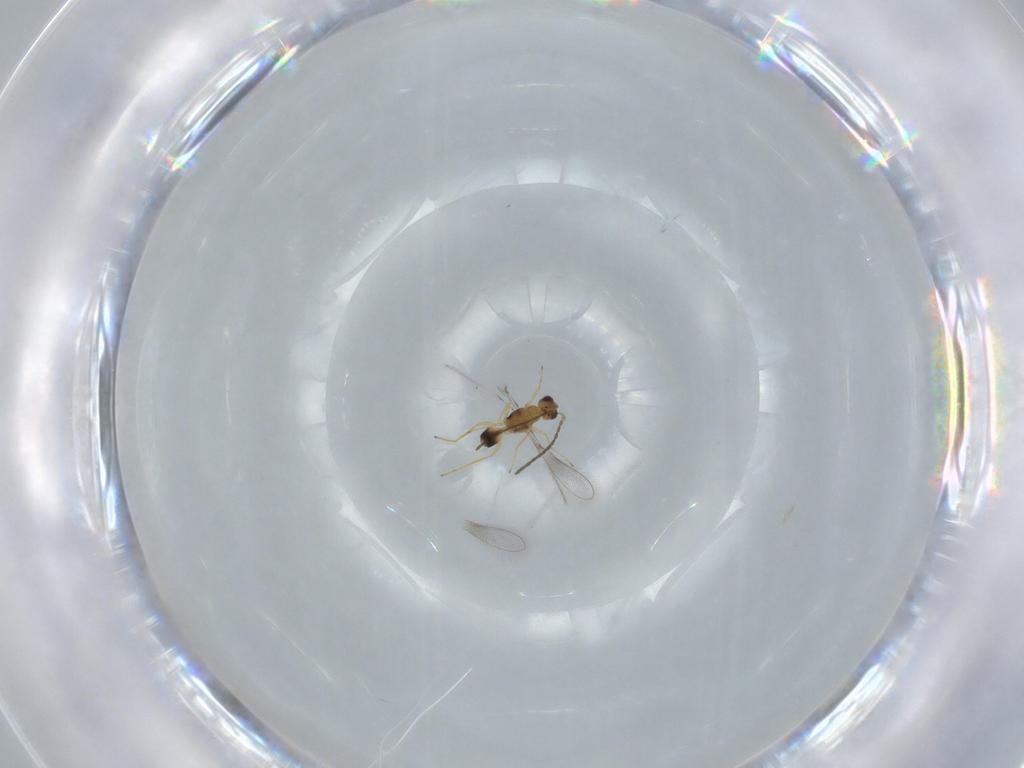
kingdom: Animalia
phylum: Arthropoda
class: Insecta
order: Hymenoptera
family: Mymaridae
